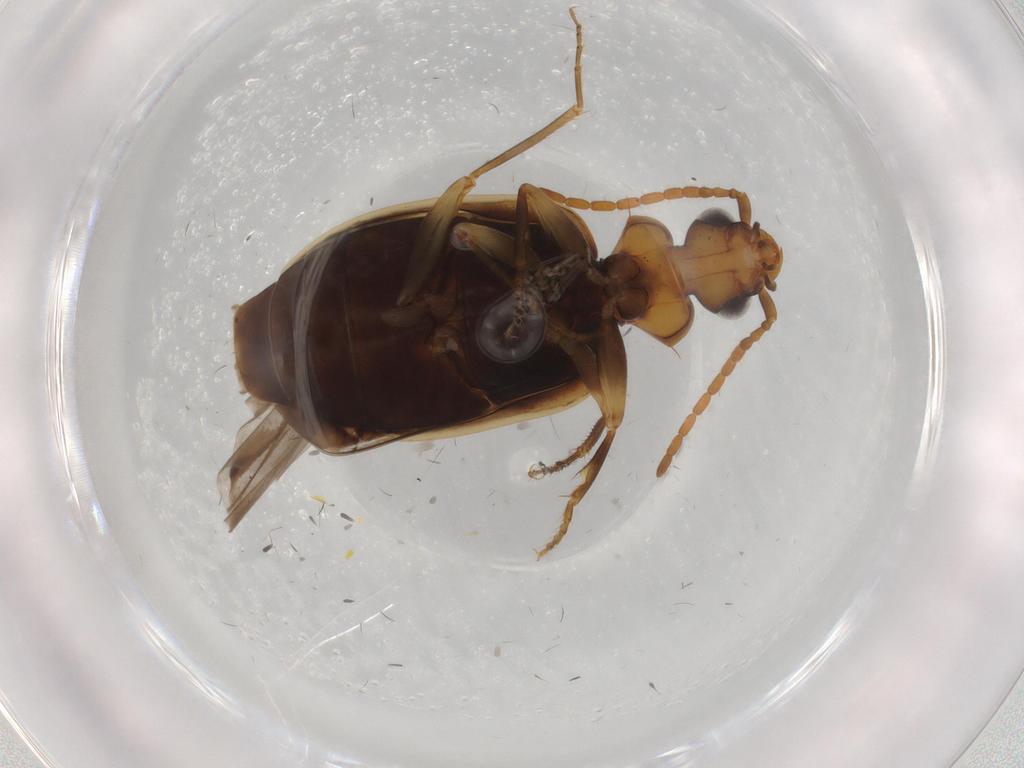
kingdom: Animalia
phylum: Arthropoda
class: Insecta
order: Coleoptera
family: Carabidae
